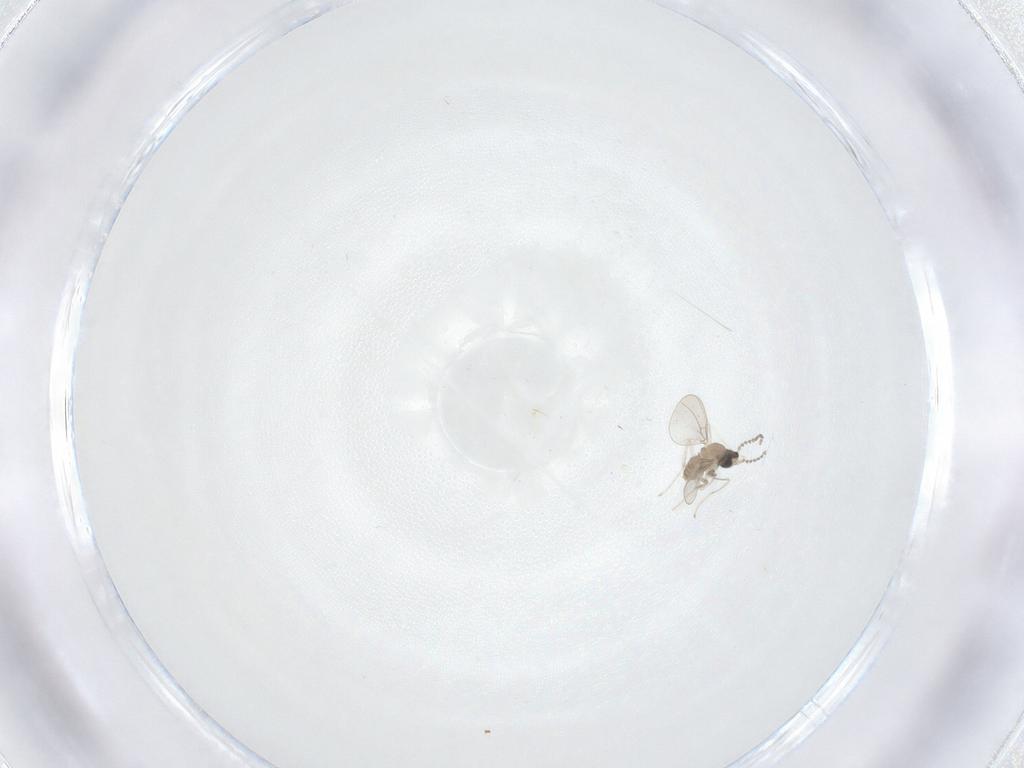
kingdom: Animalia
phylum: Arthropoda
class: Insecta
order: Diptera
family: Cecidomyiidae
